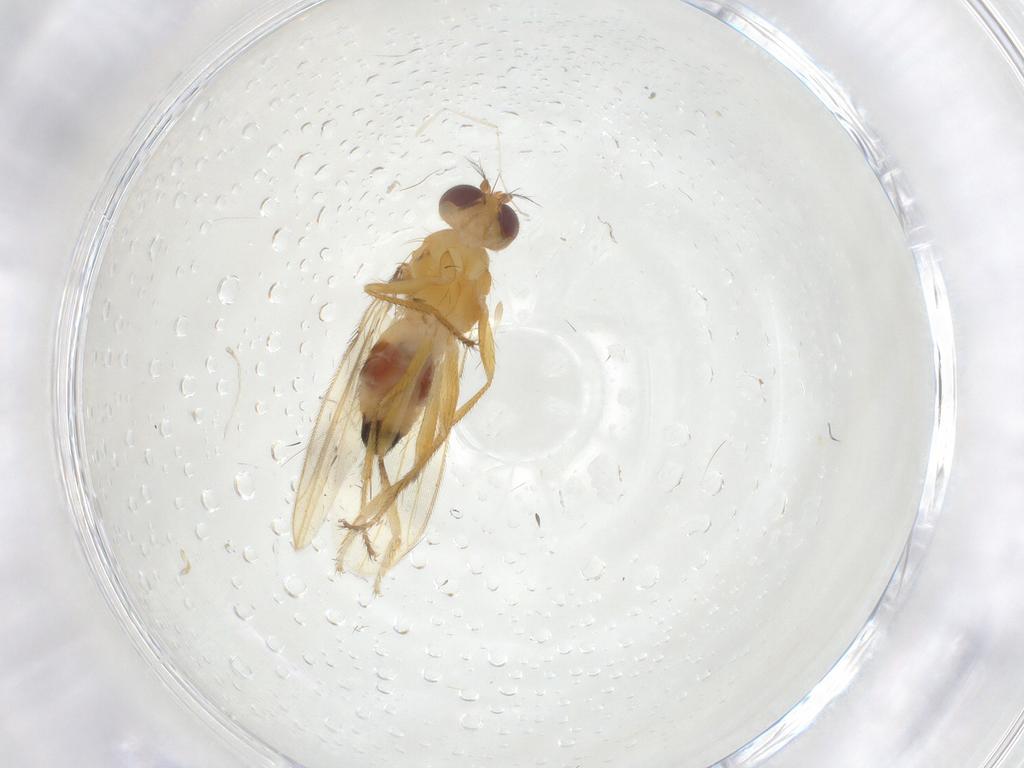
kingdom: Animalia
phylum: Arthropoda
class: Insecta
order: Diptera
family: Periscelididae
